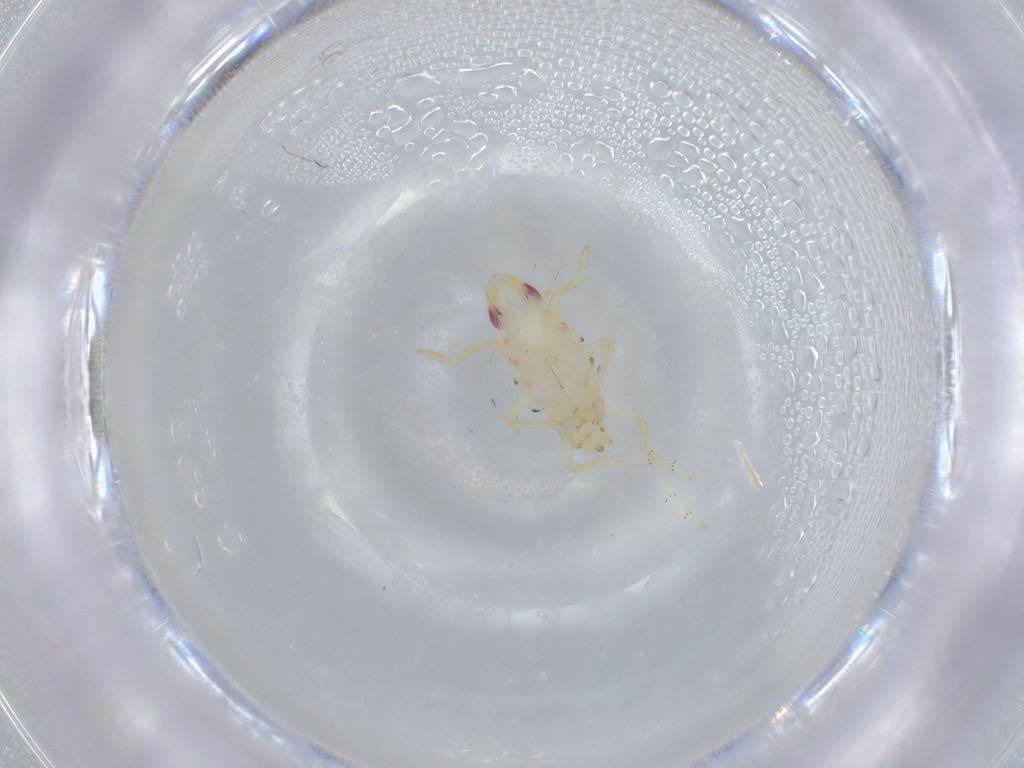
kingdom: Animalia
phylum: Arthropoda
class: Insecta
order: Hemiptera
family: Tropiduchidae
